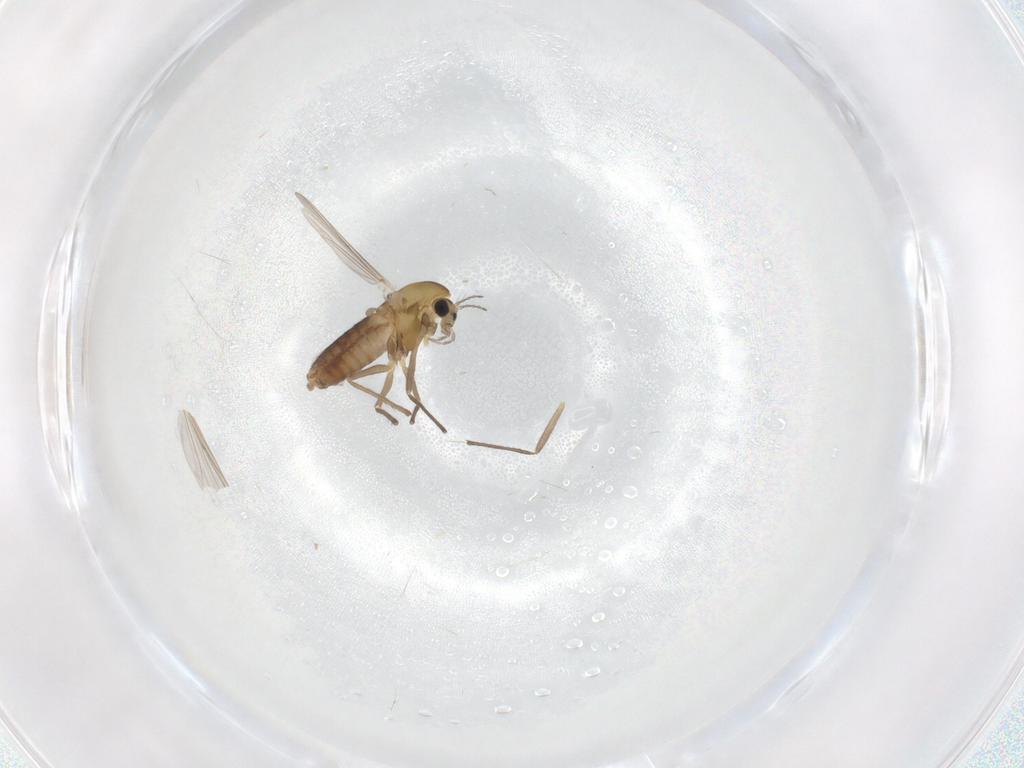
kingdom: Animalia
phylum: Arthropoda
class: Insecta
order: Diptera
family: Chironomidae
